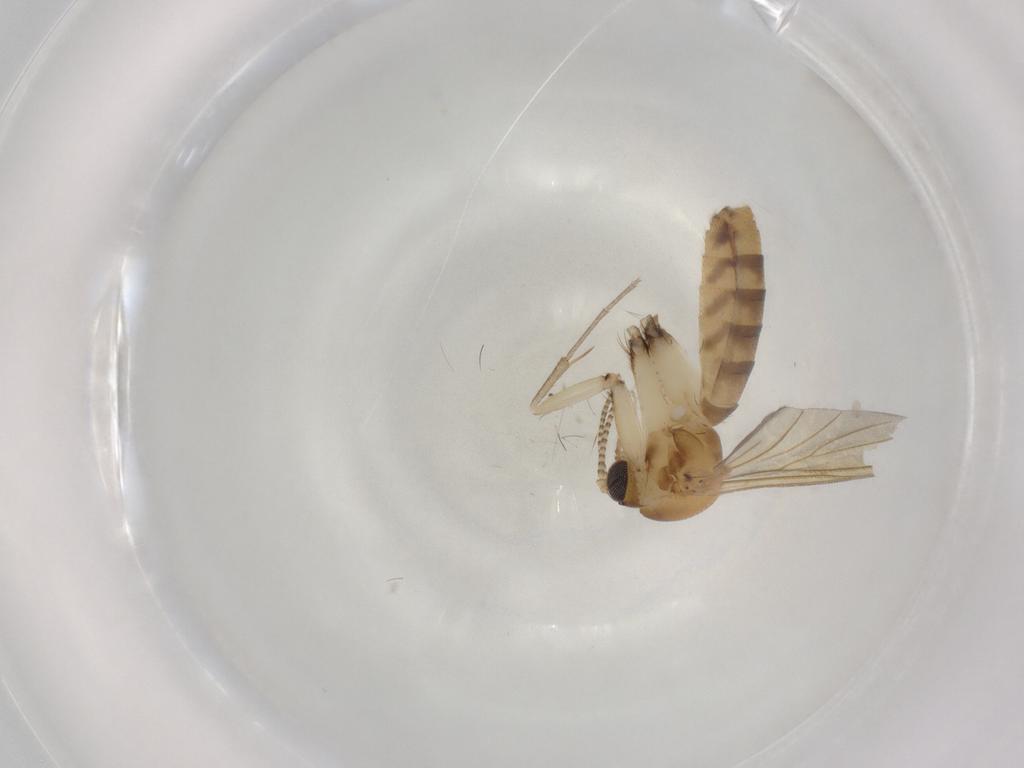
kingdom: Animalia
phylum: Arthropoda
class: Insecta
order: Diptera
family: Mycetophilidae
